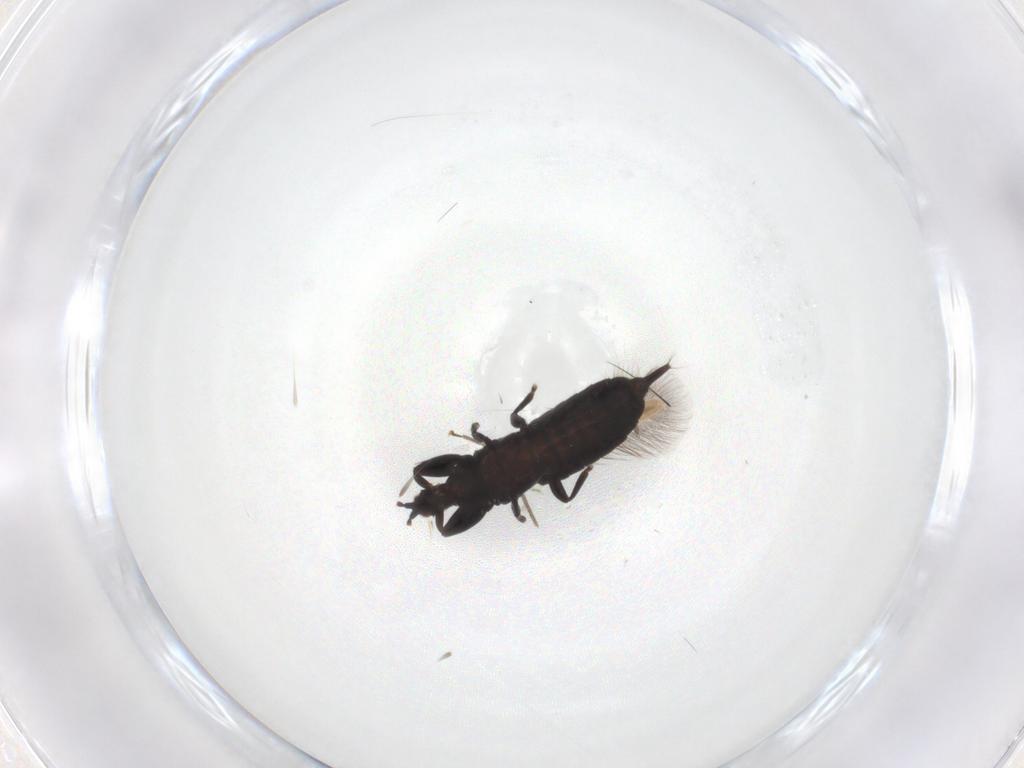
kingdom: Animalia
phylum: Arthropoda
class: Insecta
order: Thysanoptera
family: Phlaeothripidae
